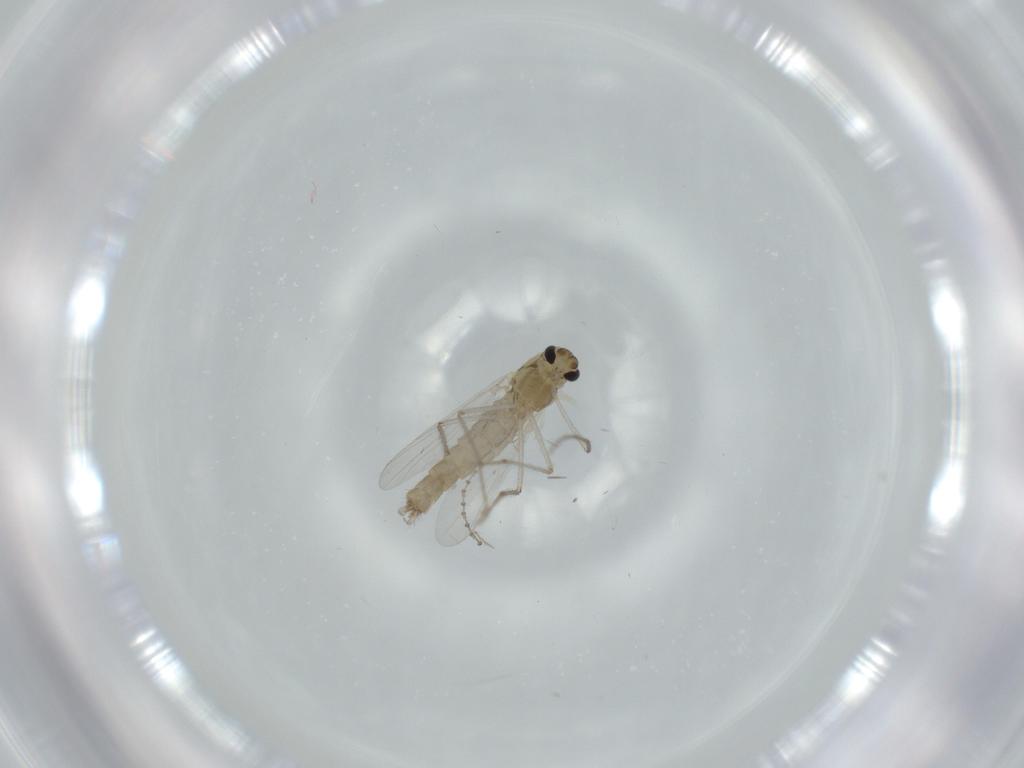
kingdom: Animalia
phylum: Arthropoda
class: Insecta
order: Diptera
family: Chironomidae
